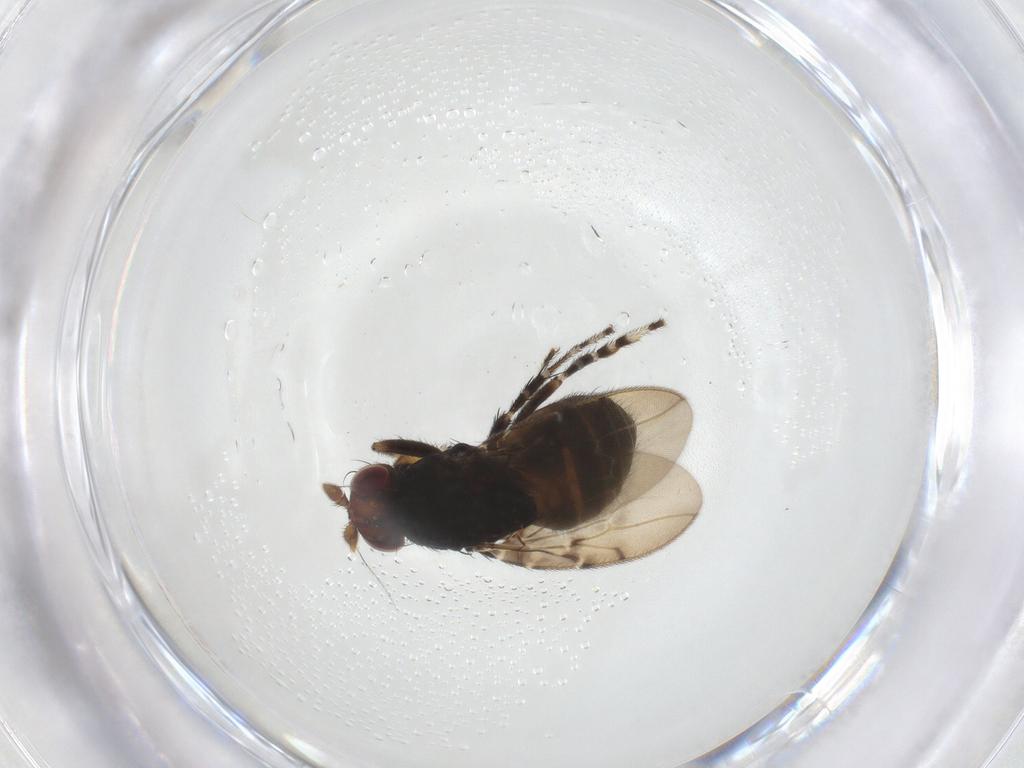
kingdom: Animalia
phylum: Arthropoda
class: Insecta
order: Diptera
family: Sphaeroceridae
